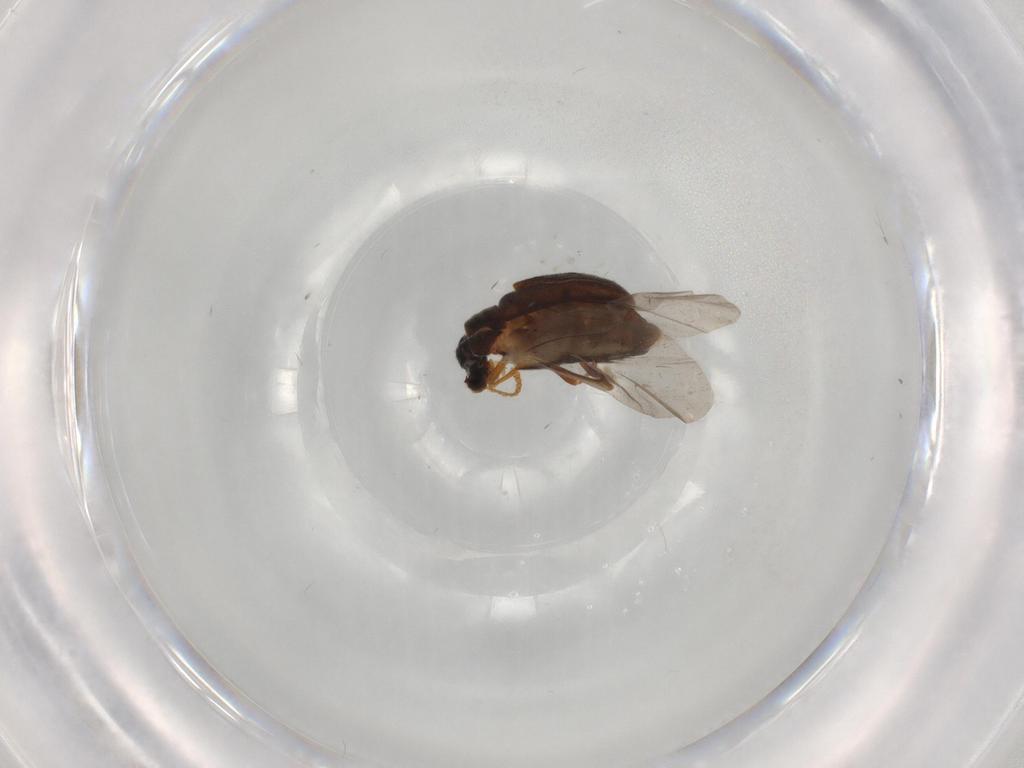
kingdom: Animalia
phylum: Arthropoda
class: Insecta
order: Coleoptera
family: Aderidae
